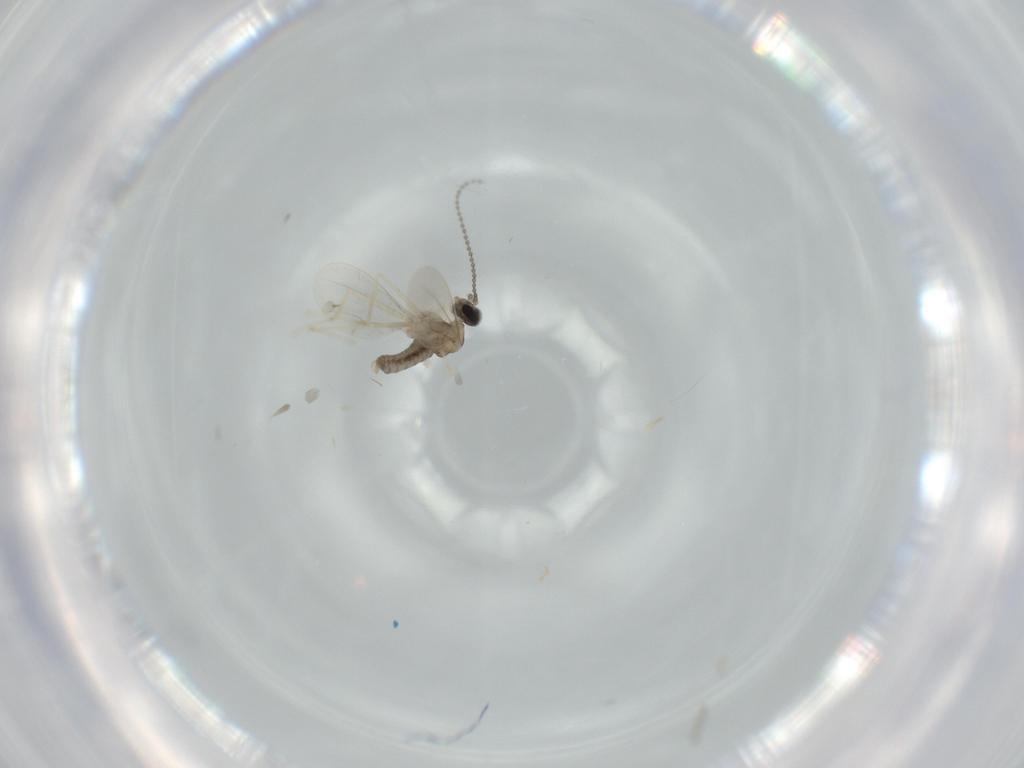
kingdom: Animalia
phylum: Arthropoda
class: Insecta
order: Diptera
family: Cecidomyiidae
